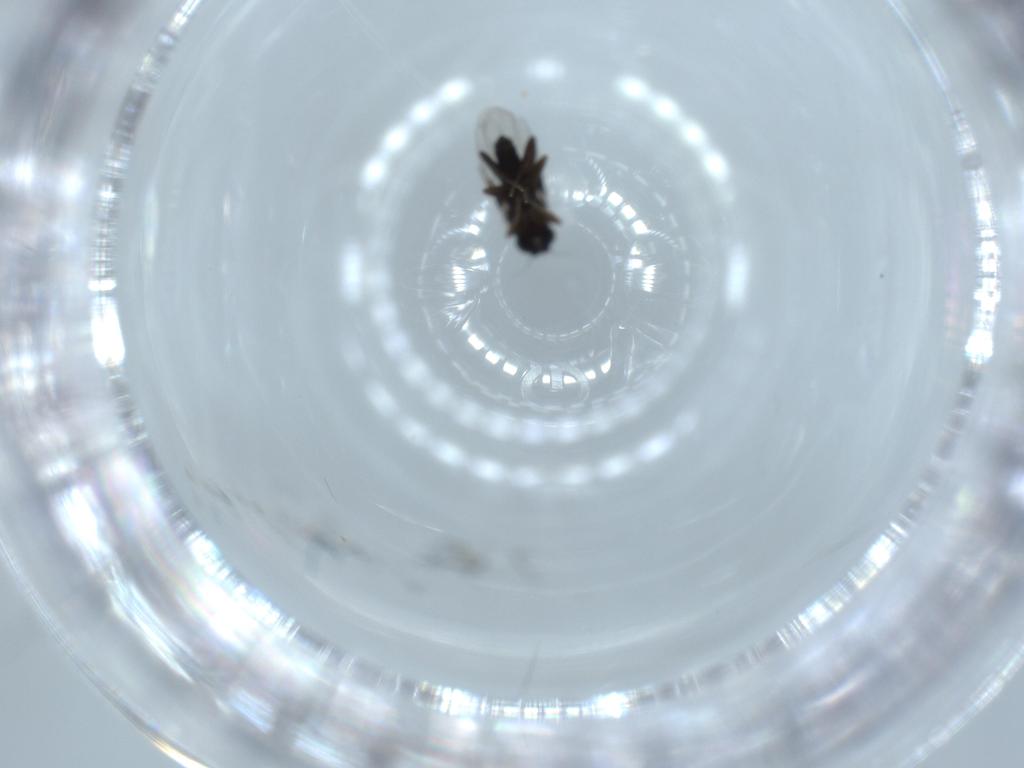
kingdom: Animalia
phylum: Arthropoda
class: Insecta
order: Diptera
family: Phoridae
